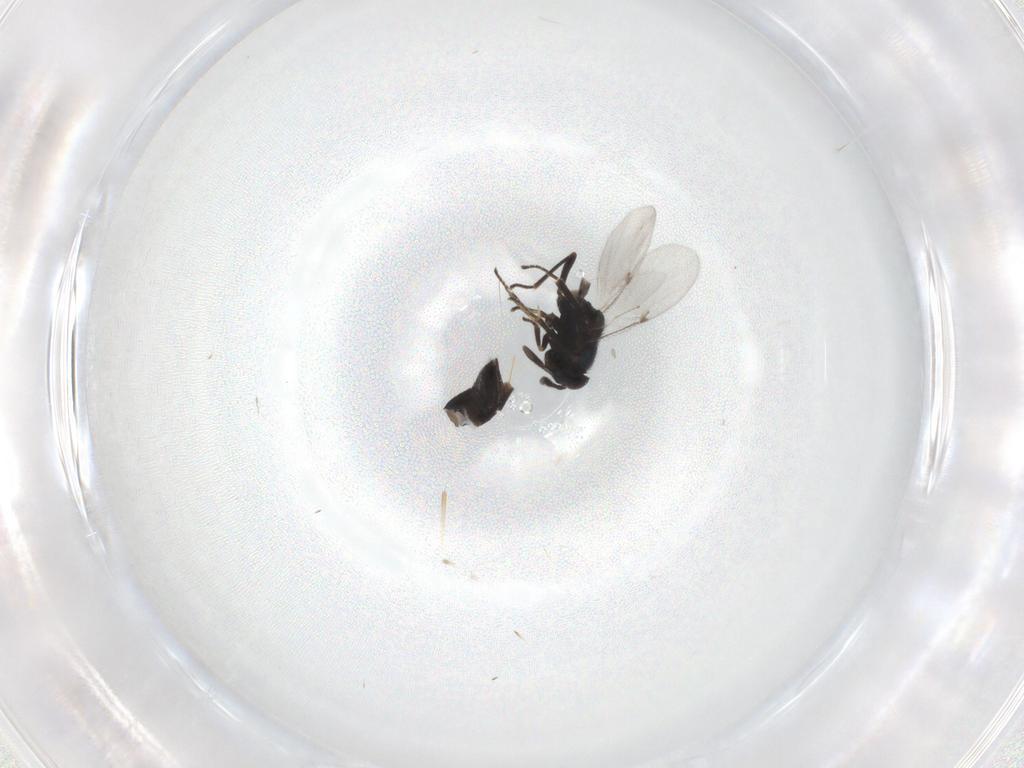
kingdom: Animalia
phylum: Arthropoda
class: Insecta
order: Hymenoptera
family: Encyrtidae
